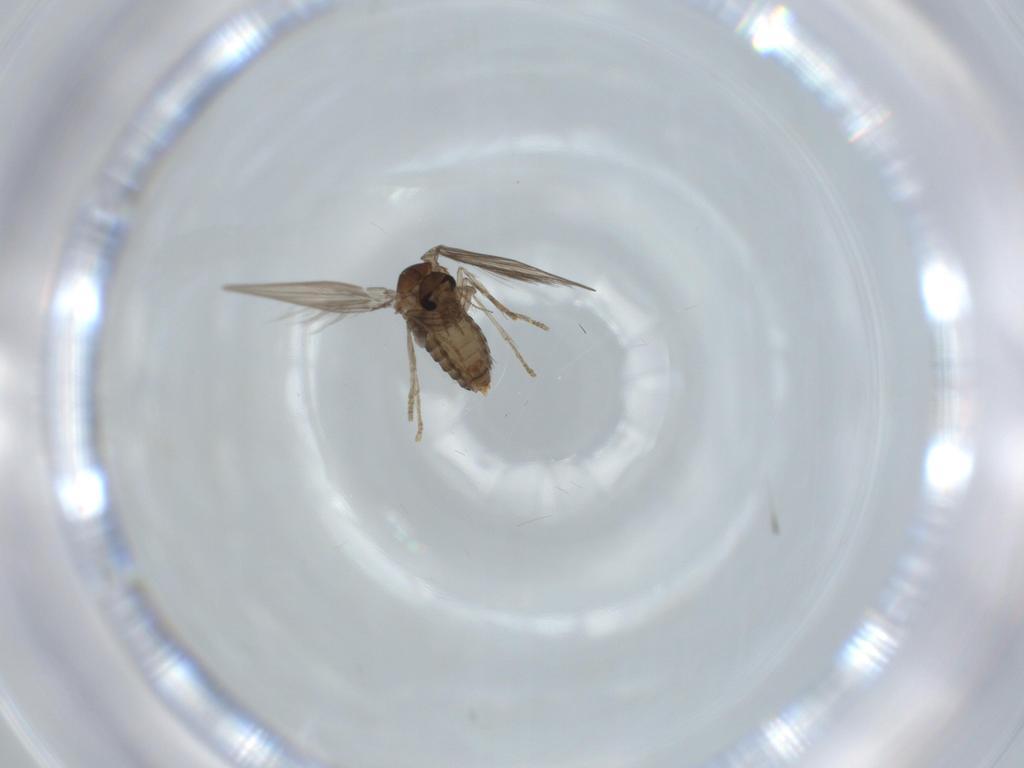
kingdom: Animalia
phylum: Arthropoda
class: Insecta
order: Diptera
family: Psychodidae
